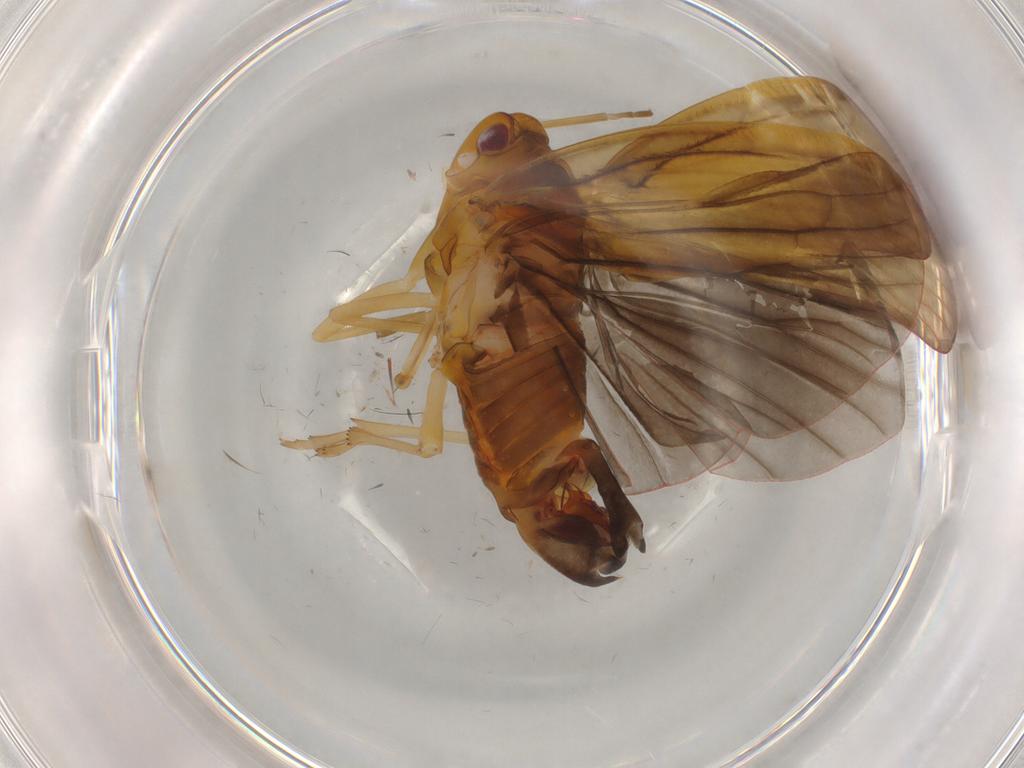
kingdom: Animalia
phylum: Arthropoda
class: Insecta
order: Hemiptera
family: Derbidae
